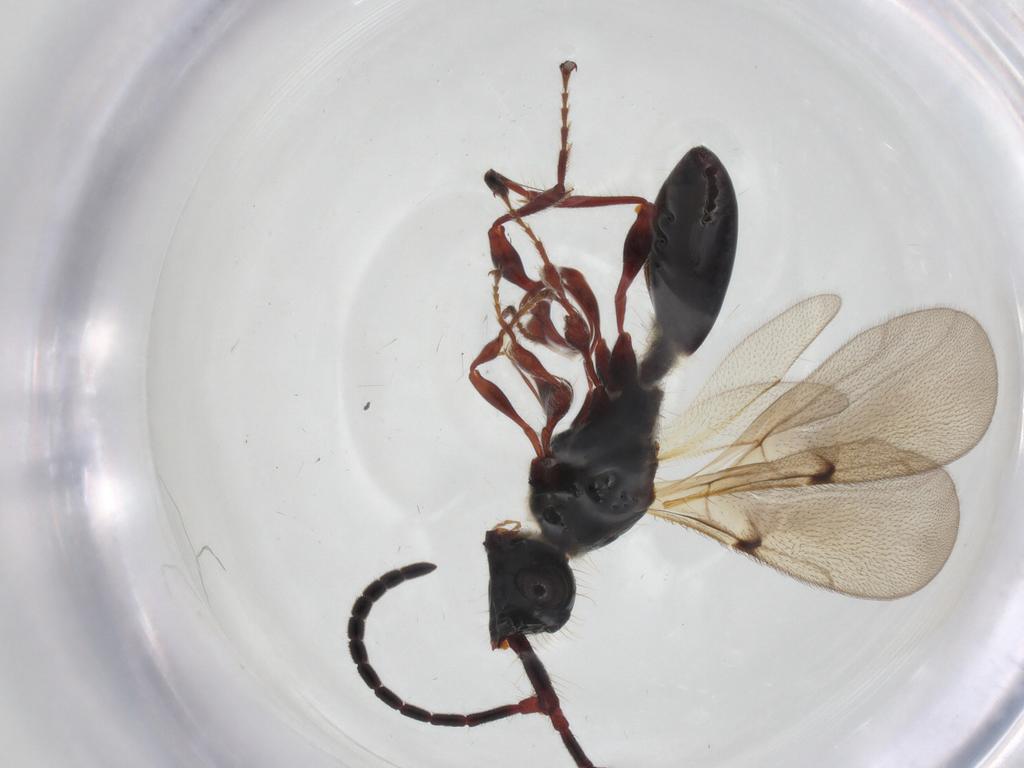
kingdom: Animalia
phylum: Arthropoda
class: Insecta
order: Hymenoptera
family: Diapriidae
